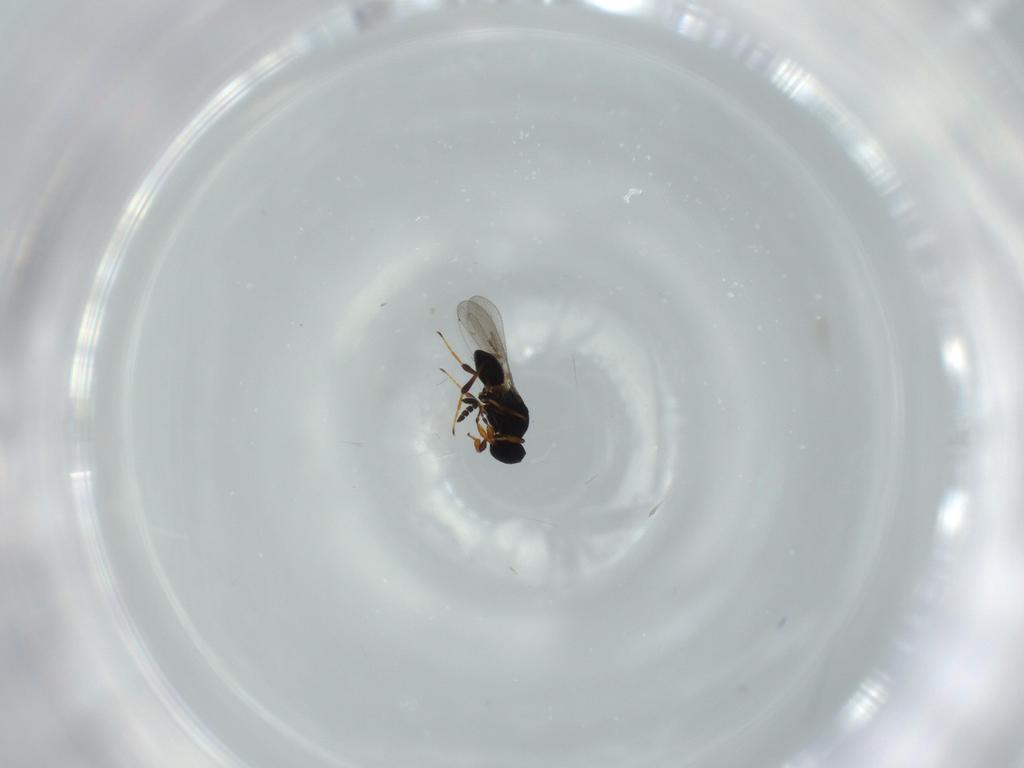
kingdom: Animalia
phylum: Arthropoda
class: Insecta
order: Hymenoptera
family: Platygastridae
